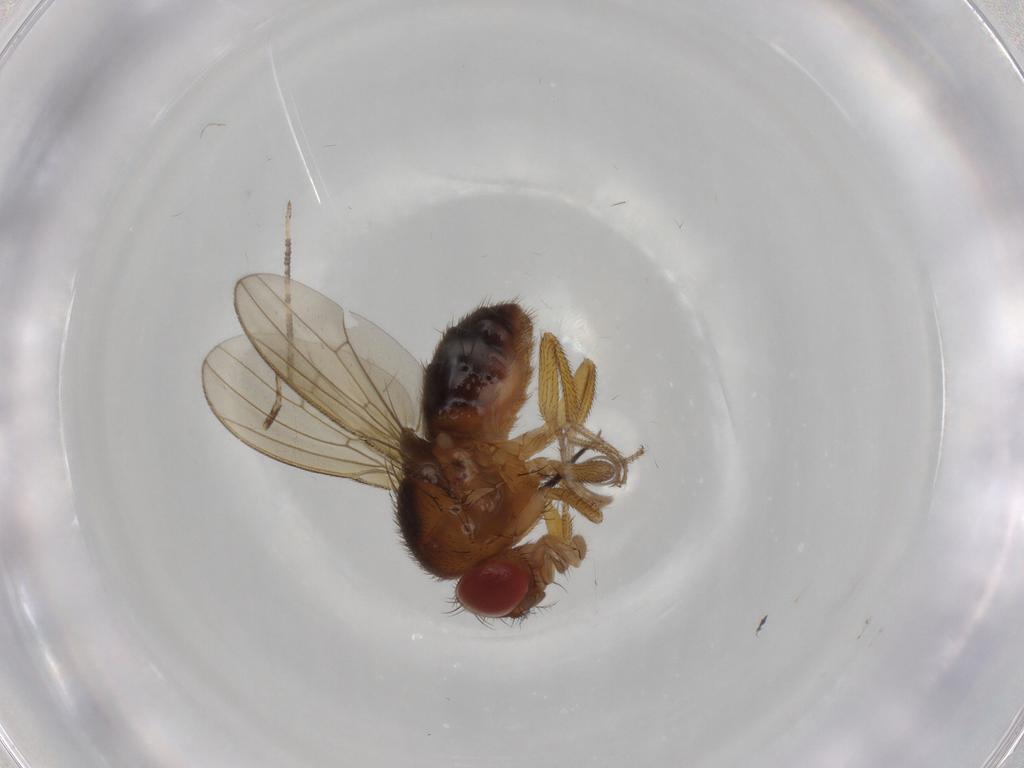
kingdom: Animalia
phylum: Arthropoda
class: Insecta
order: Diptera
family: Drosophilidae
